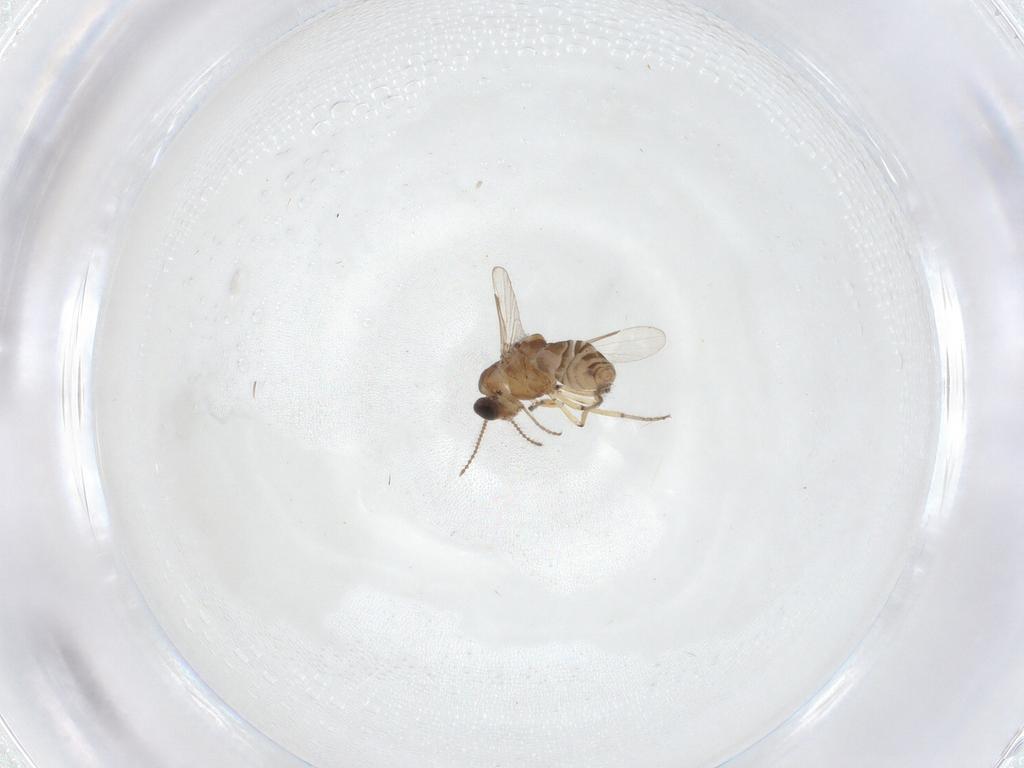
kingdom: Animalia
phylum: Arthropoda
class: Insecta
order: Diptera
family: Ceratopogonidae
